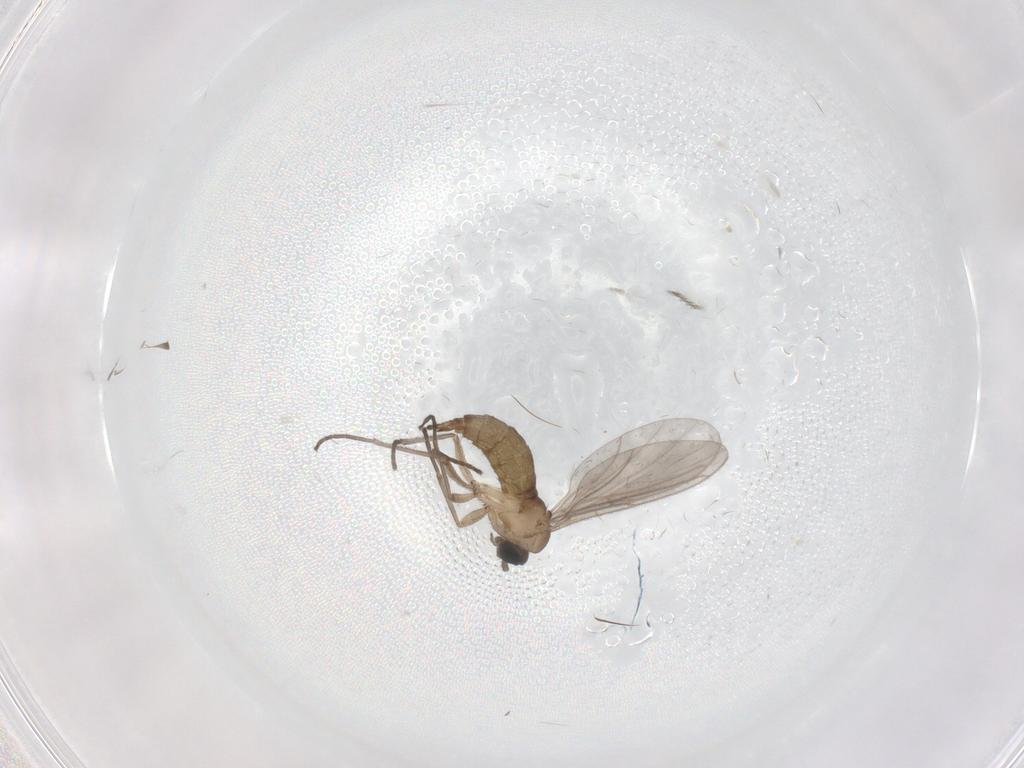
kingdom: Animalia
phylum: Arthropoda
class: Insecta
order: Diptera
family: Sciaridae
